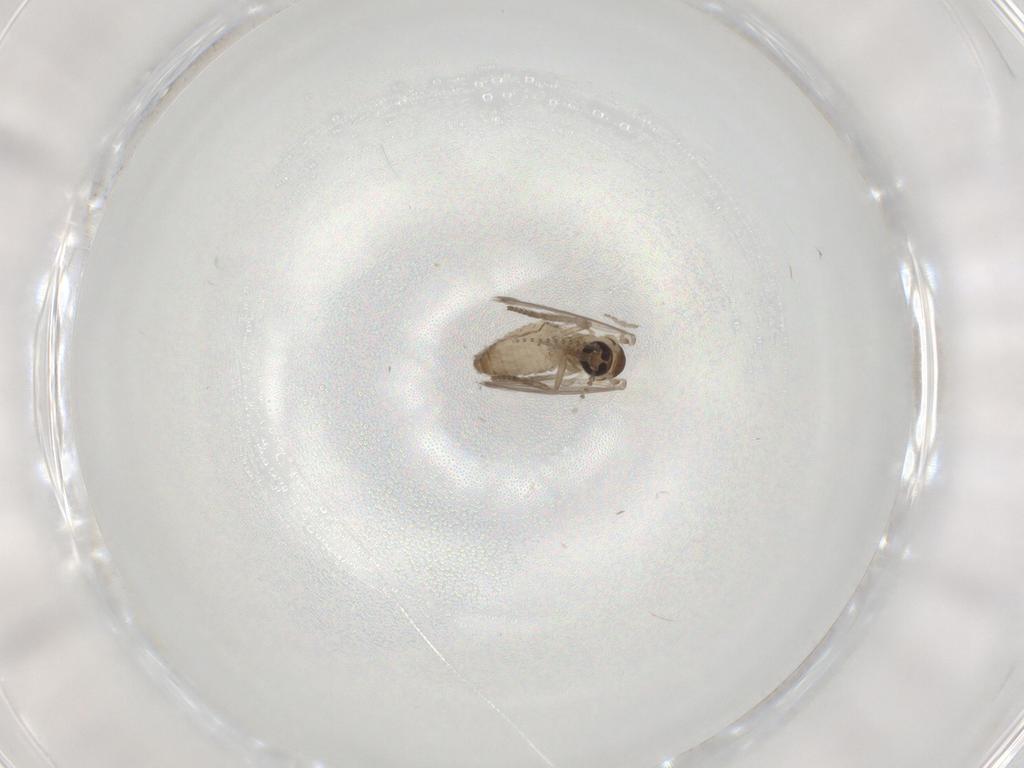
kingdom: Animalia
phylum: Arthropoda
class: Insecta
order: Diptera
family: Psychodidae
